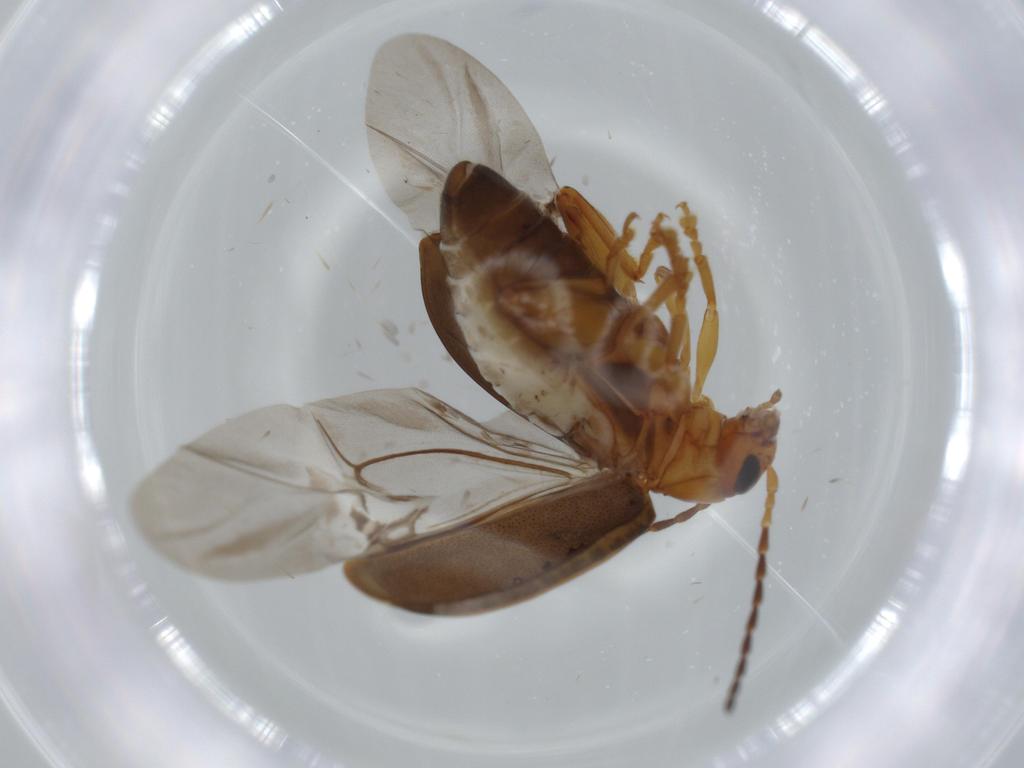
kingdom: Animalia
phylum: Arthropoda
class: Insecta
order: Coleoptera
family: Chrysomelidae
